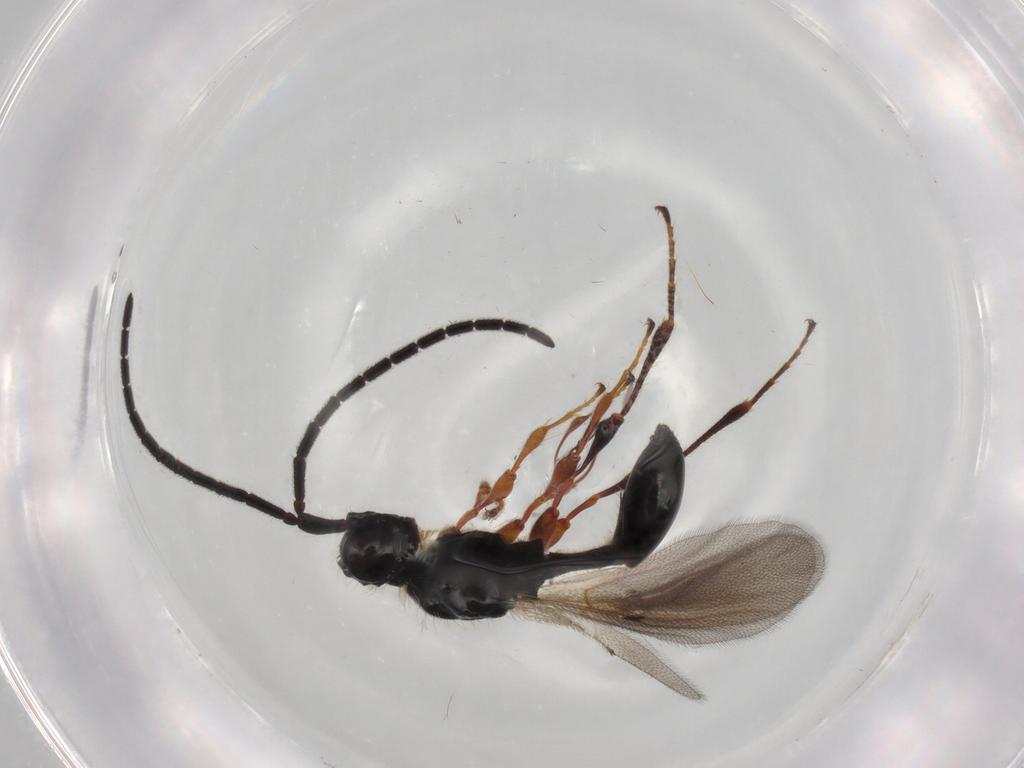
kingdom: Animalia
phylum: Arthropoda
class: Insecta
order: Hymenoptera
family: Diapriidae
